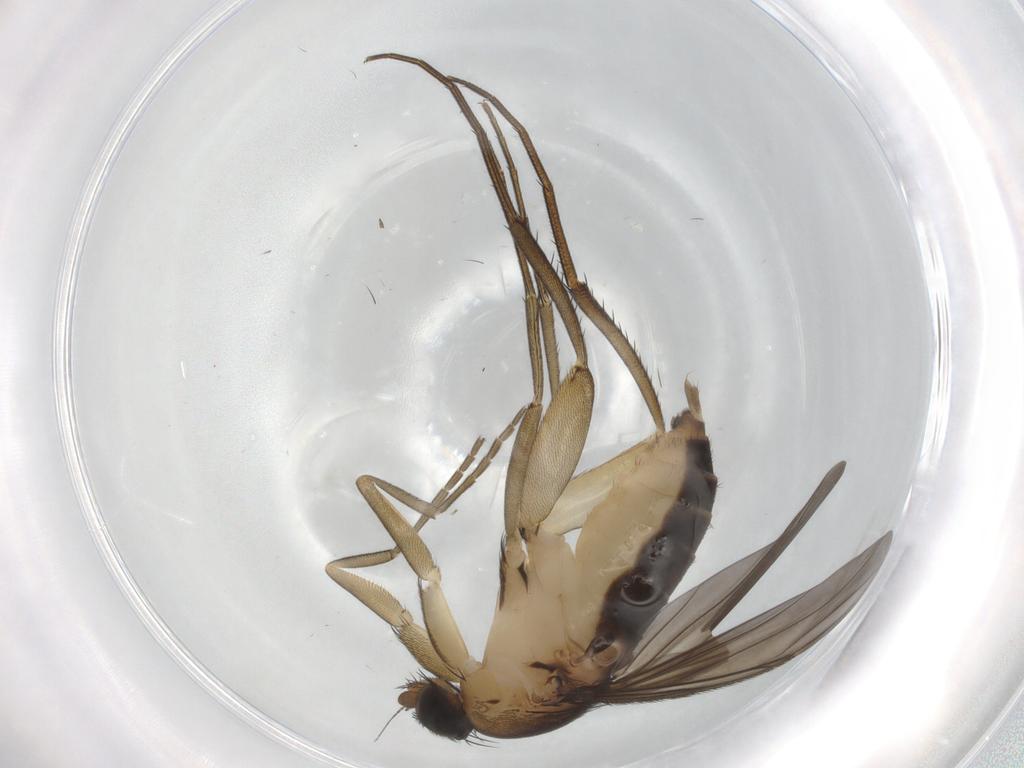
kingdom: Animalia
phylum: Arthropoda
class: Insecta
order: Diptera
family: Phoridae
